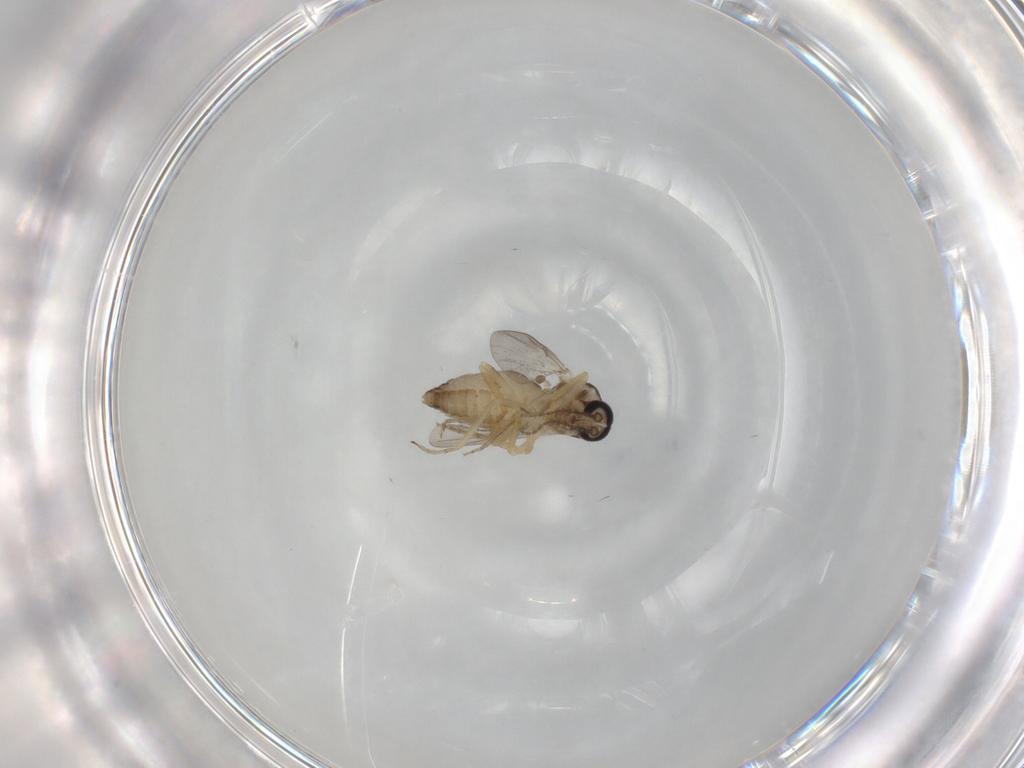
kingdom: Animalia
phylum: Arthropoda
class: Insecta
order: Diptera
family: Ceratopogonidae
